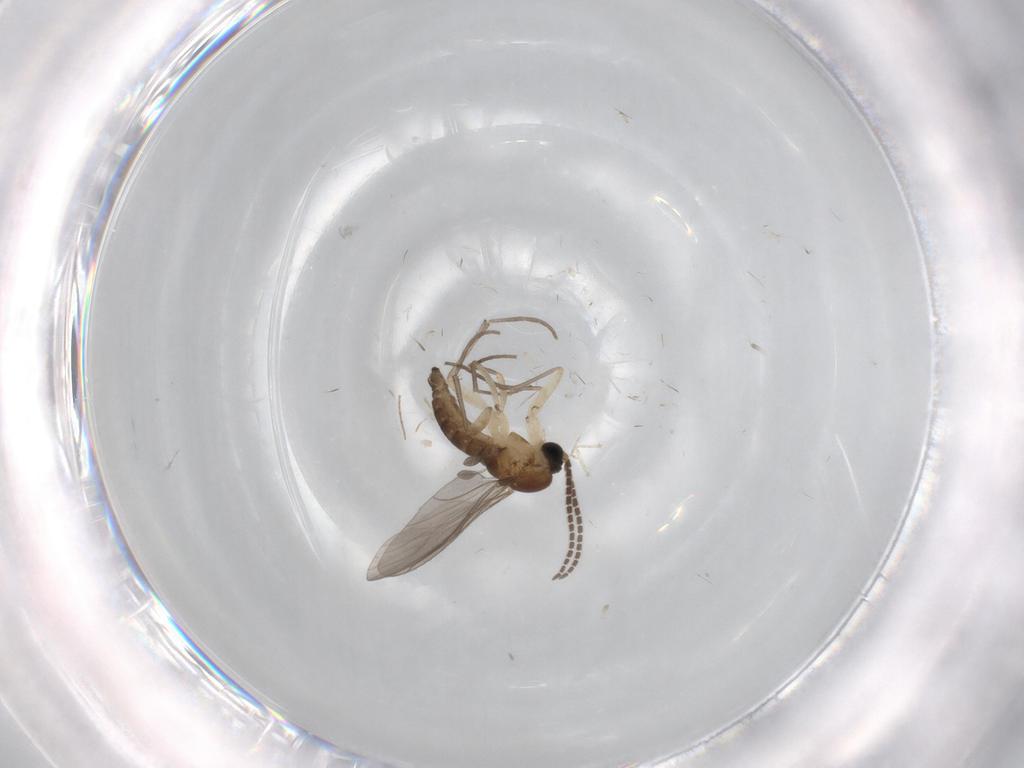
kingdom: Animalia
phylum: Arthropoda
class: Insecta
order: Diptera
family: Sciaridae
